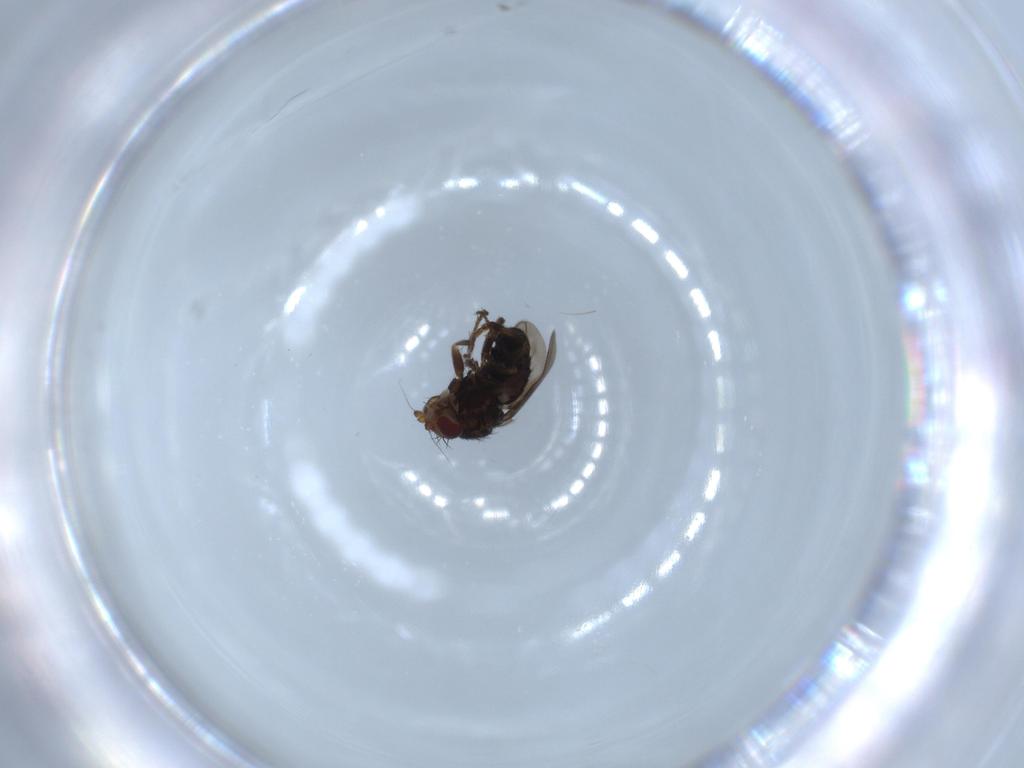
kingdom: Animalia
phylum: Arthropoda
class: Insecta
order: Diptera
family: Sphaeroceridae
